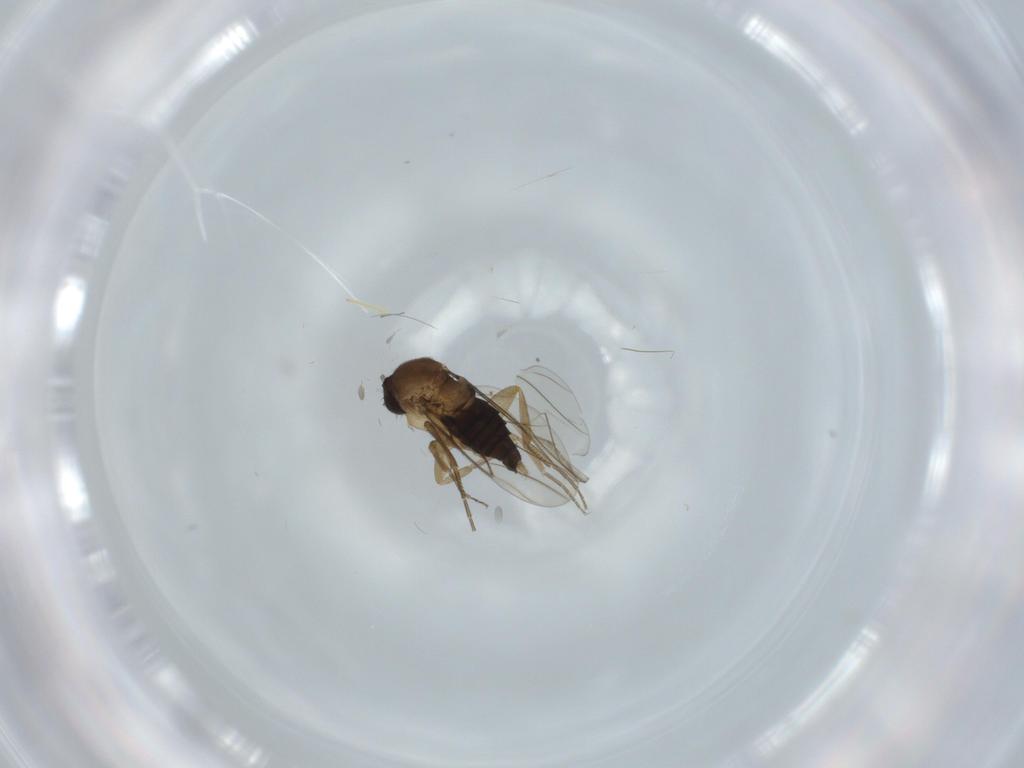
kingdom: Animalia
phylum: Arthropoda
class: Insecta
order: Diptera
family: Phoridae
